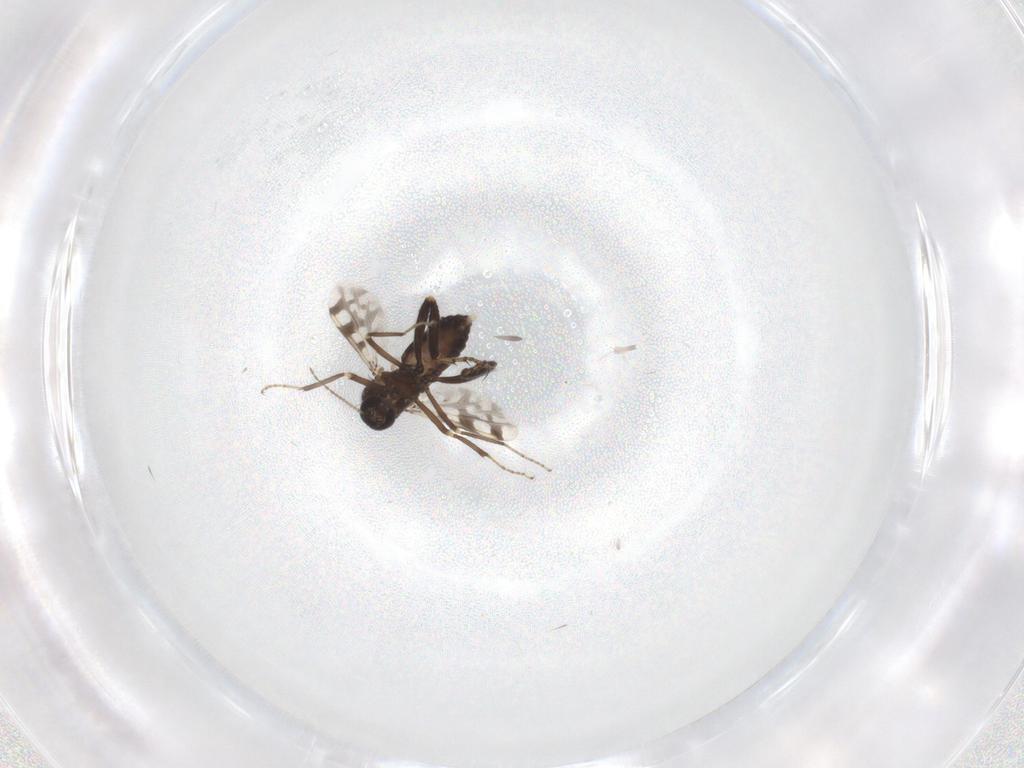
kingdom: Animalia
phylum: Arthropoda
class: Insecta
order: Diptera
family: Ceratopogonidae
